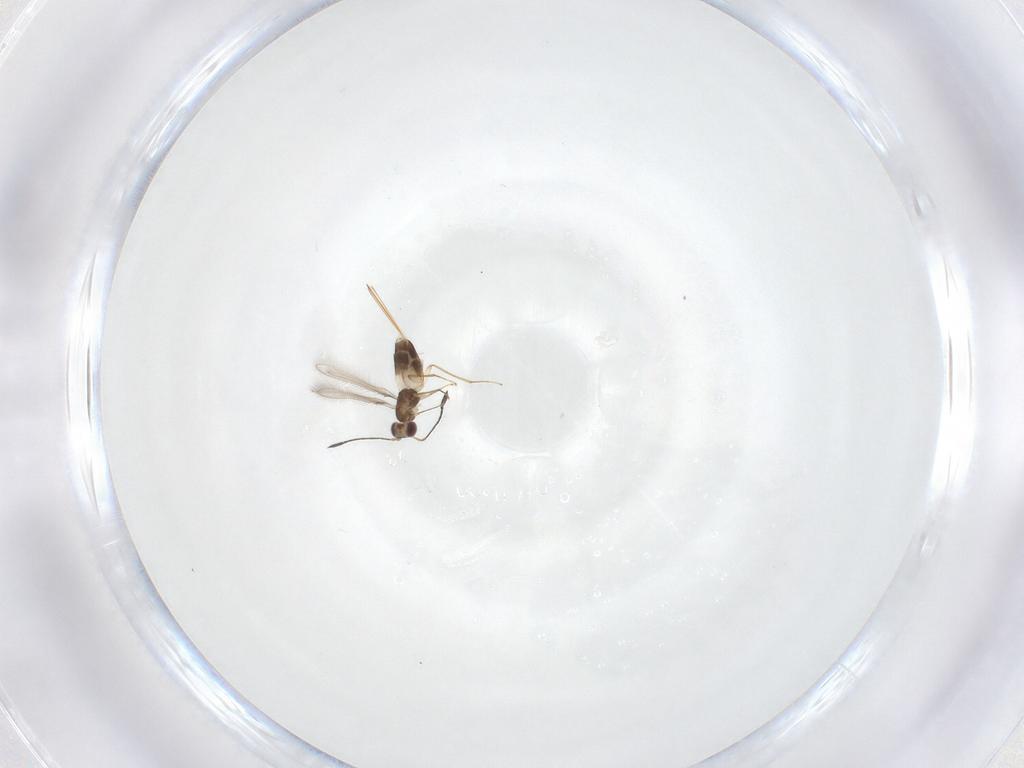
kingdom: Animalia
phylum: Arthropoda
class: Insecta
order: Hymenoptera
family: Mymaridae
